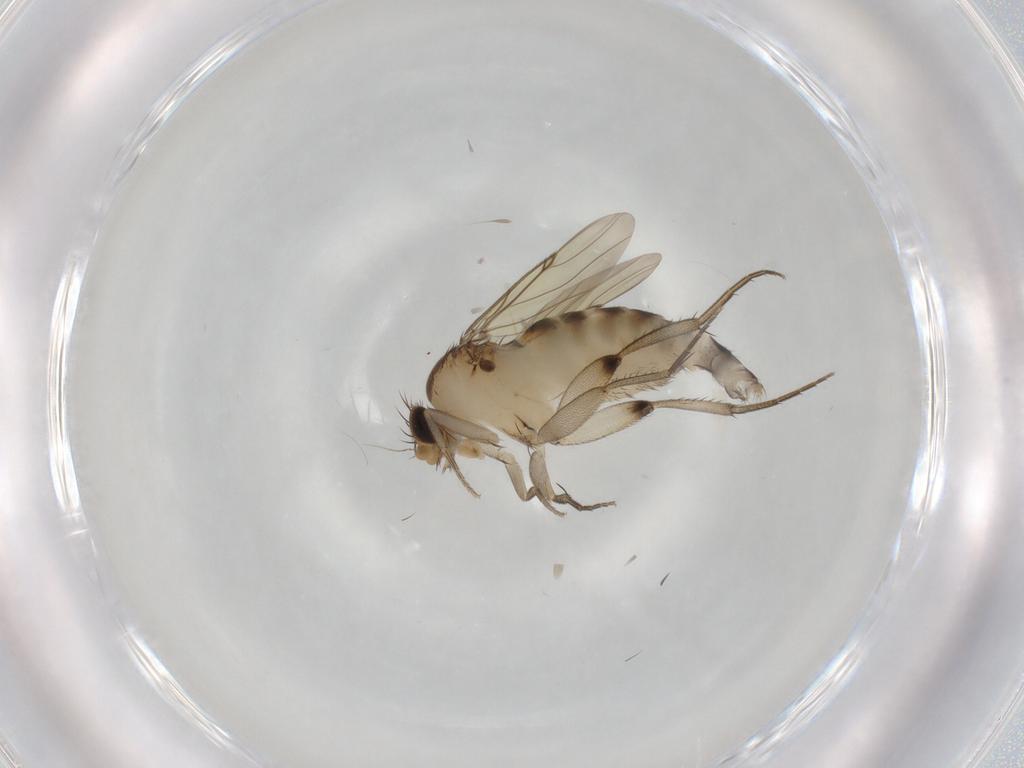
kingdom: Animalia
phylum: Arthropoda
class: Insecta
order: Diptera
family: Phoridae
